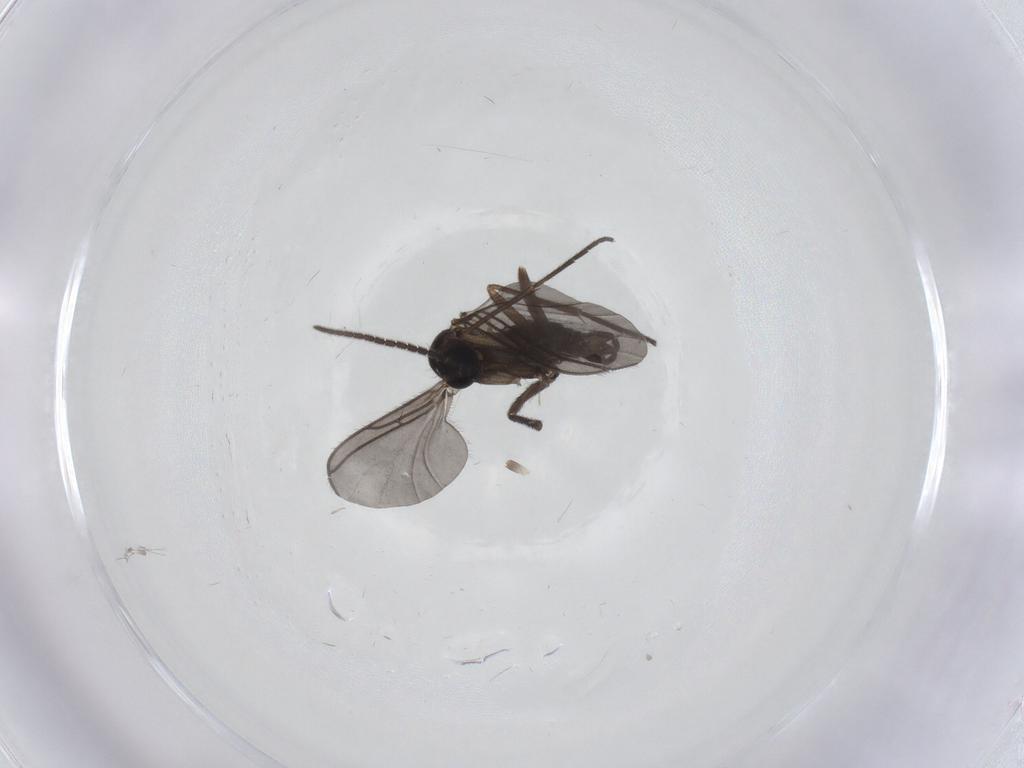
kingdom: Animalia
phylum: Arthropoda
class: Insecta
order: Diptera
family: Sciaridae
